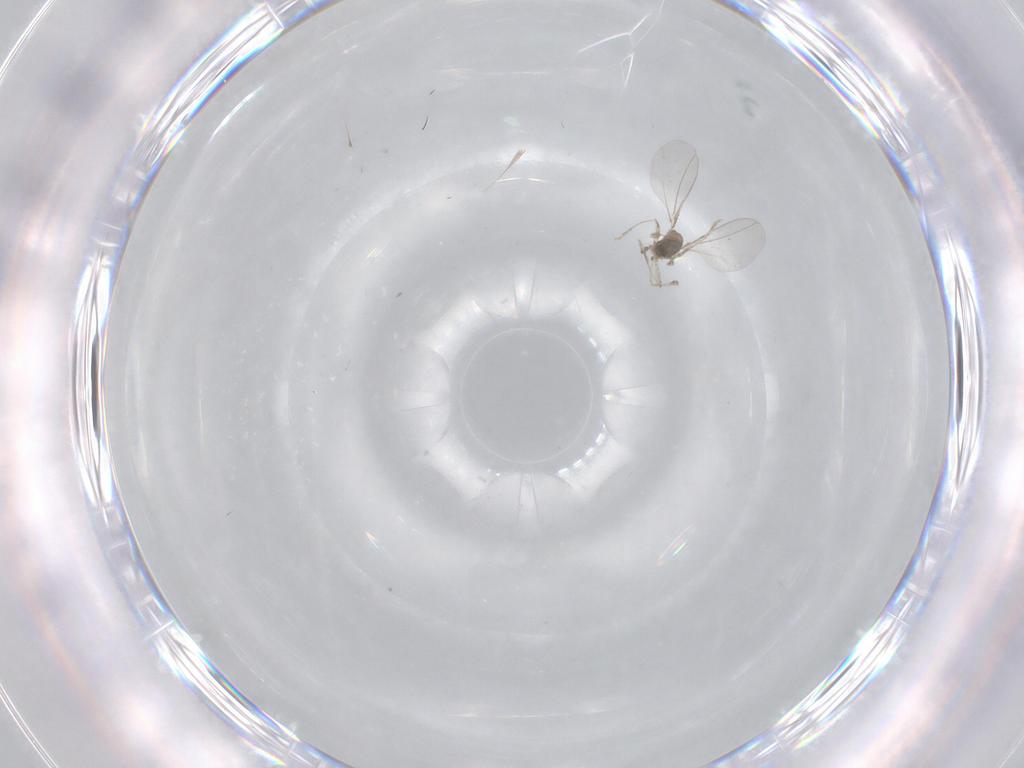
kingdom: Animalia
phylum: Arthropoda
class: Insecta
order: Diptera
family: Cecidomyiidae
